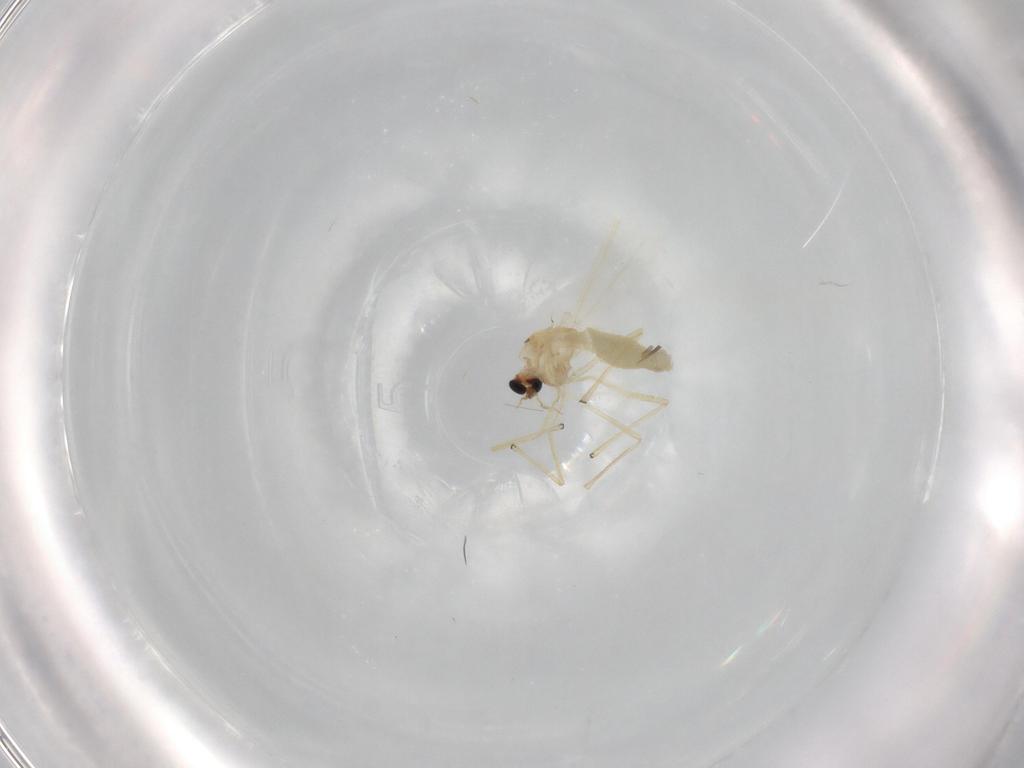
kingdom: Animalia
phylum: Arthropoda
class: Insecta
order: Diptera
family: Chironomidae
